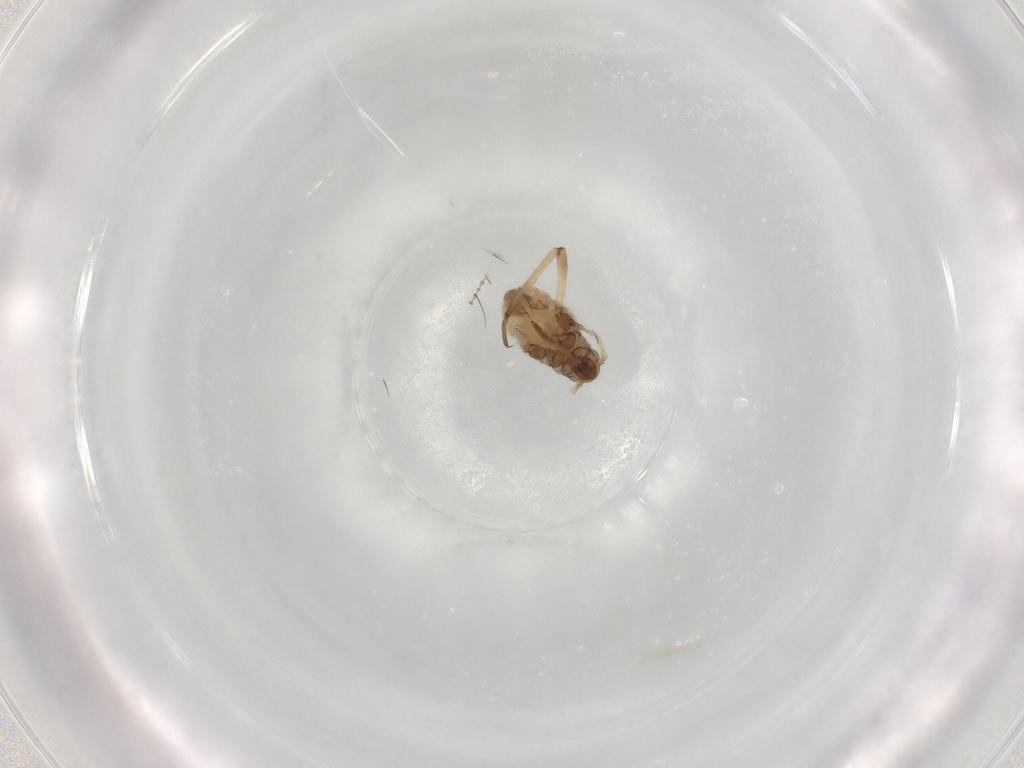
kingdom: Animalia
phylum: Arthropoda
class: Insecta
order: Hemiptera
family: Aphididae
